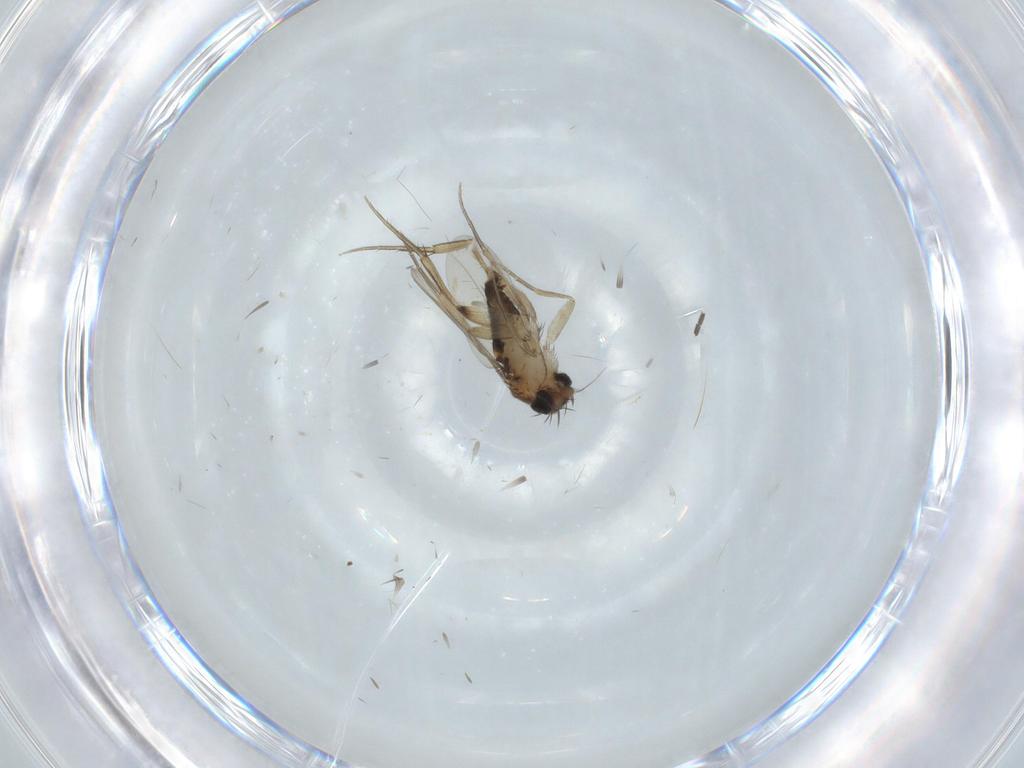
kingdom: Animalia
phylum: Arthropoda
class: Insecta
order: Diptera
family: Phoridae
